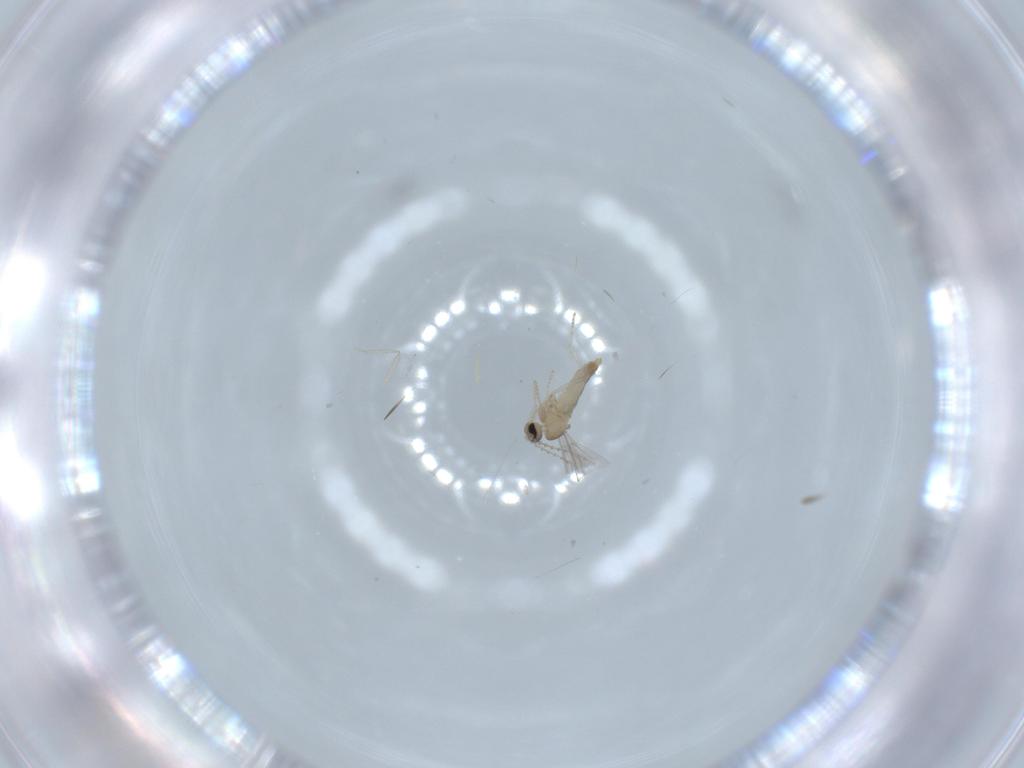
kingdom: Animalia
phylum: Arthropoda
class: Insecta
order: Diptera
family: Cecidomyiidae
